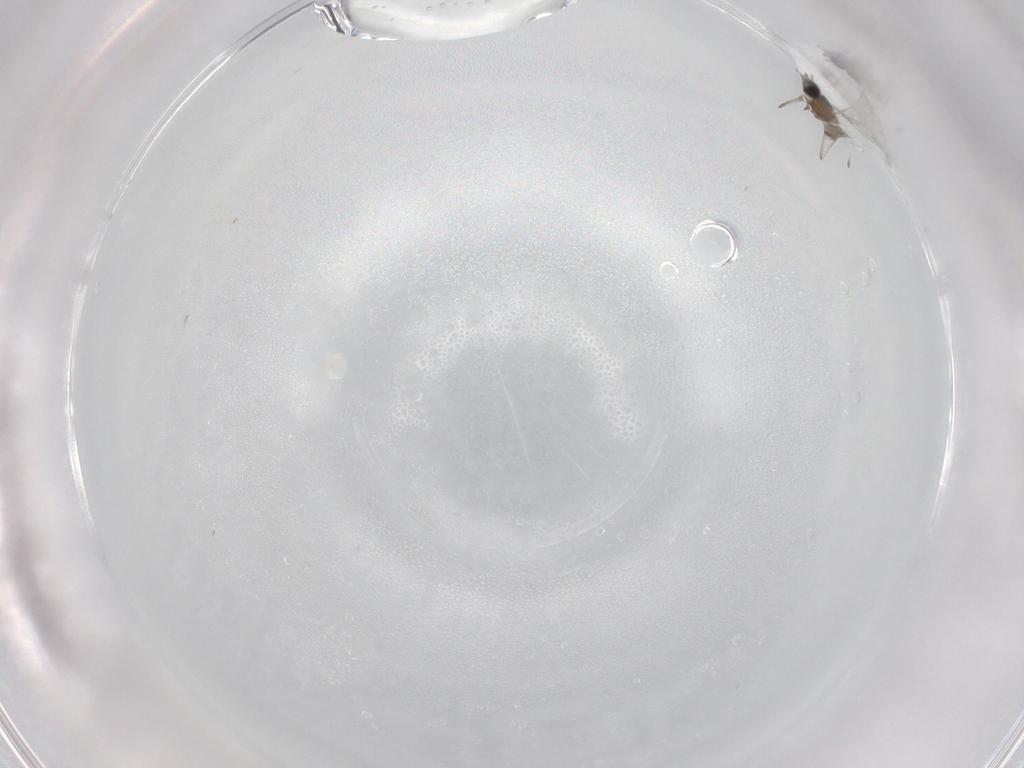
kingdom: Animalia
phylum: Arthropoda
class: Insecta
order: Diptera
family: Cecidomyiidae
